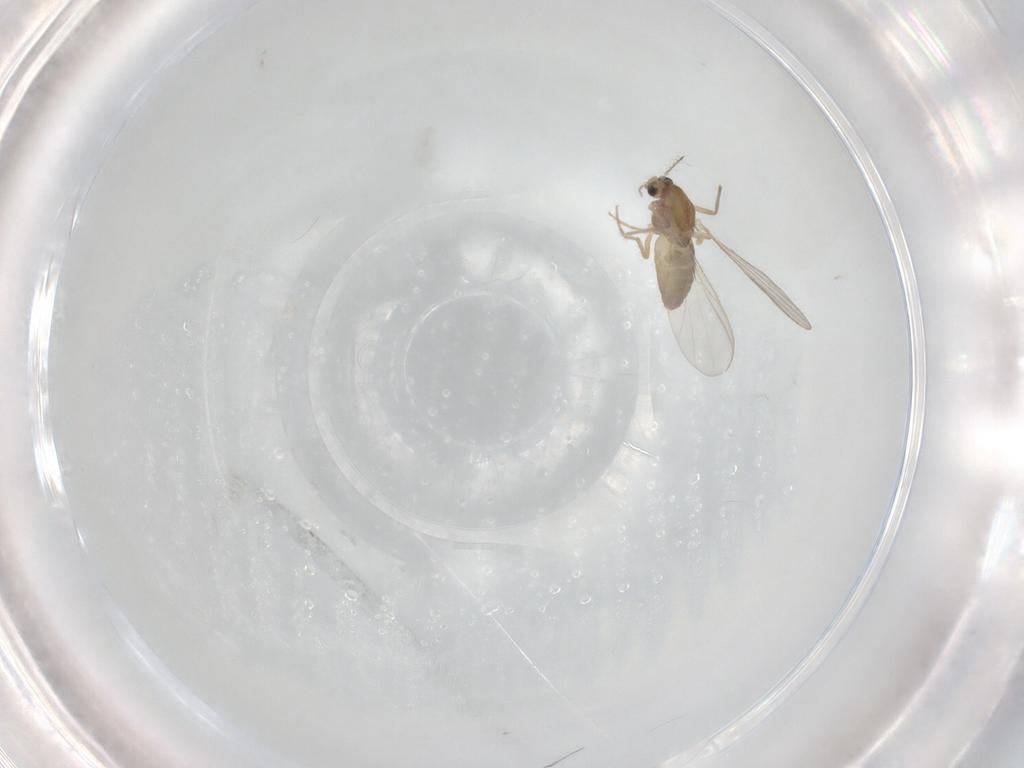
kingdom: Animalia
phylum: Arthropoda
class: Insecta
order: Diptera
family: Chironomidae
